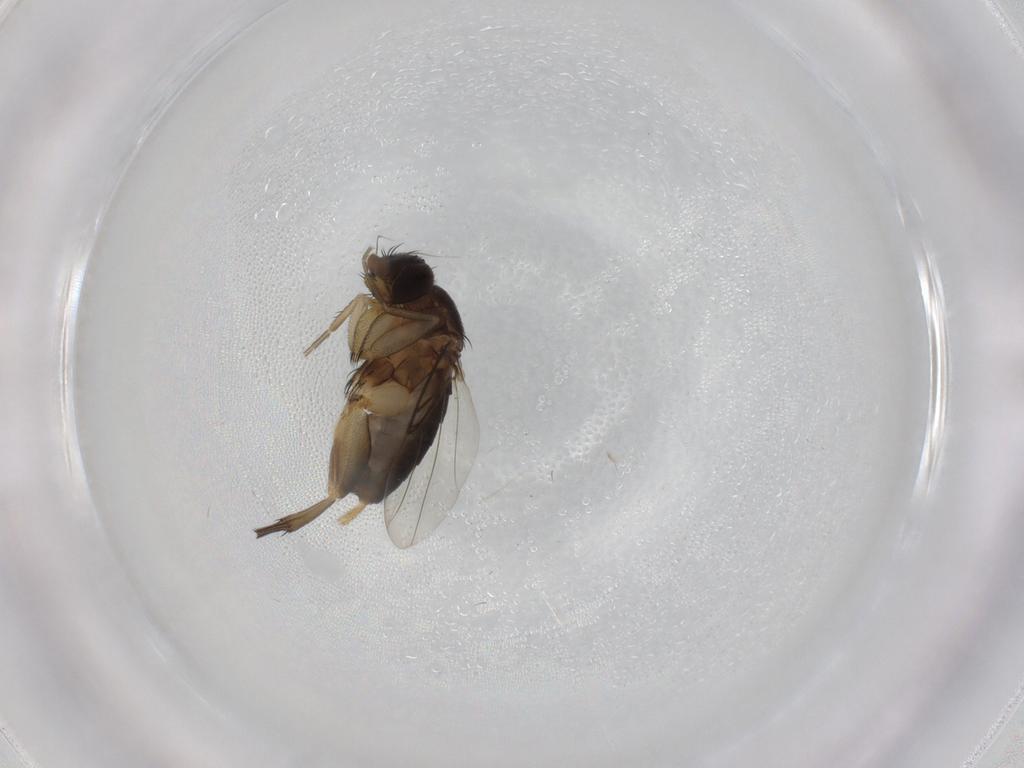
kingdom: Animalia
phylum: Arthropoda
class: Insecta
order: Diptera
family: Phoridae
